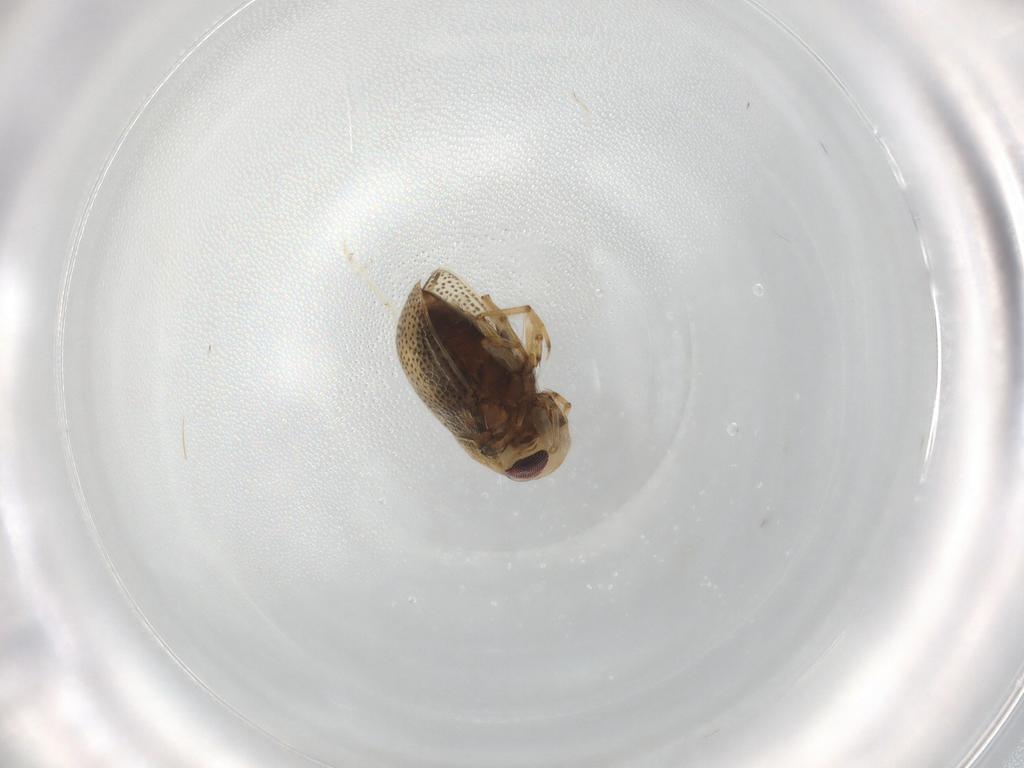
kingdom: Animalia
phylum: Arthropoda
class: Insecta
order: Hemiptera
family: Pleidae
